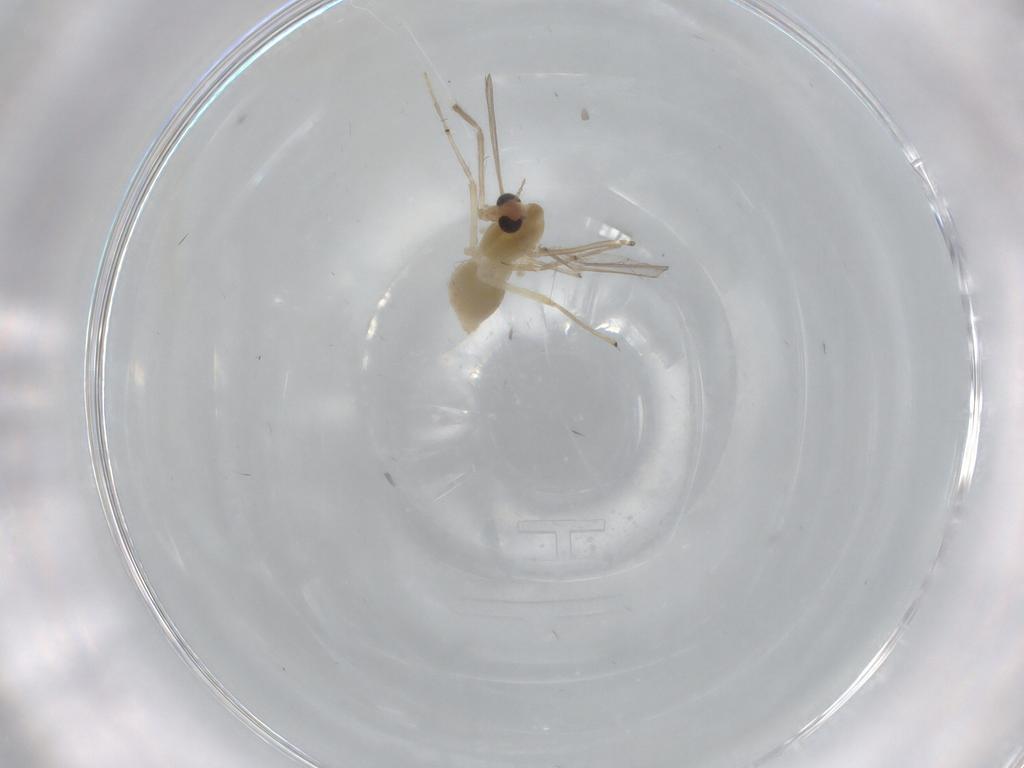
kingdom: Animalia
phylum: Arthropoda
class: Insecta
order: Diptera
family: Chironomidae
